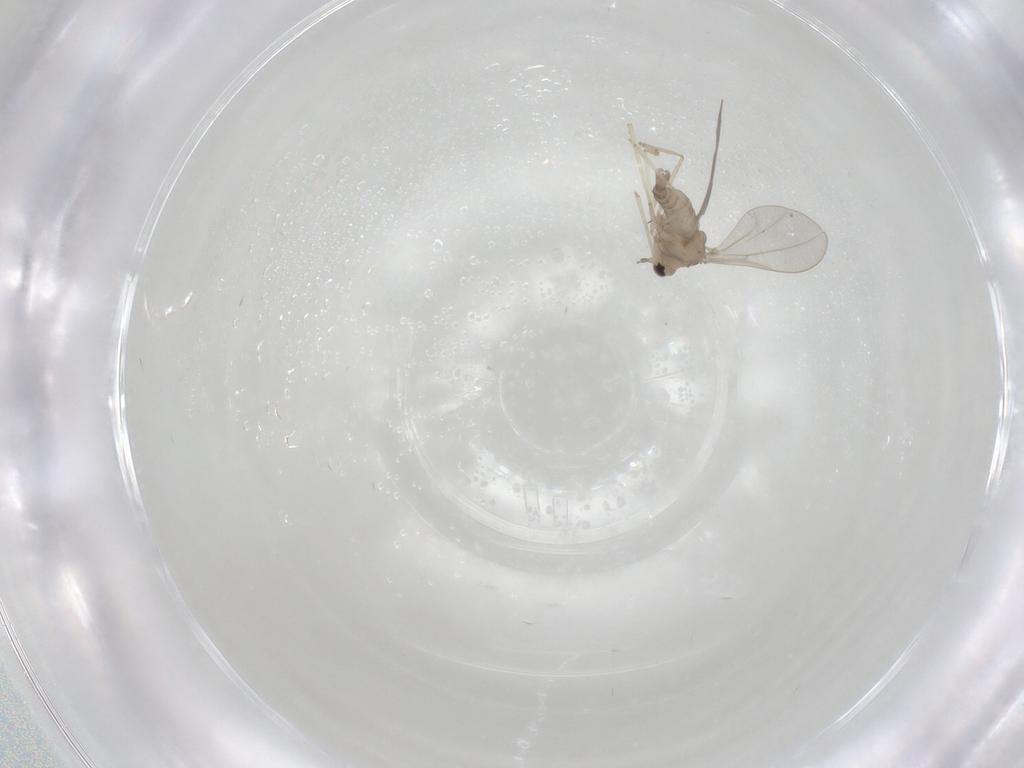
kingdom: Animalia
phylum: Arthropoda
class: Insecta
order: Diptera
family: Cecidomyiidae
